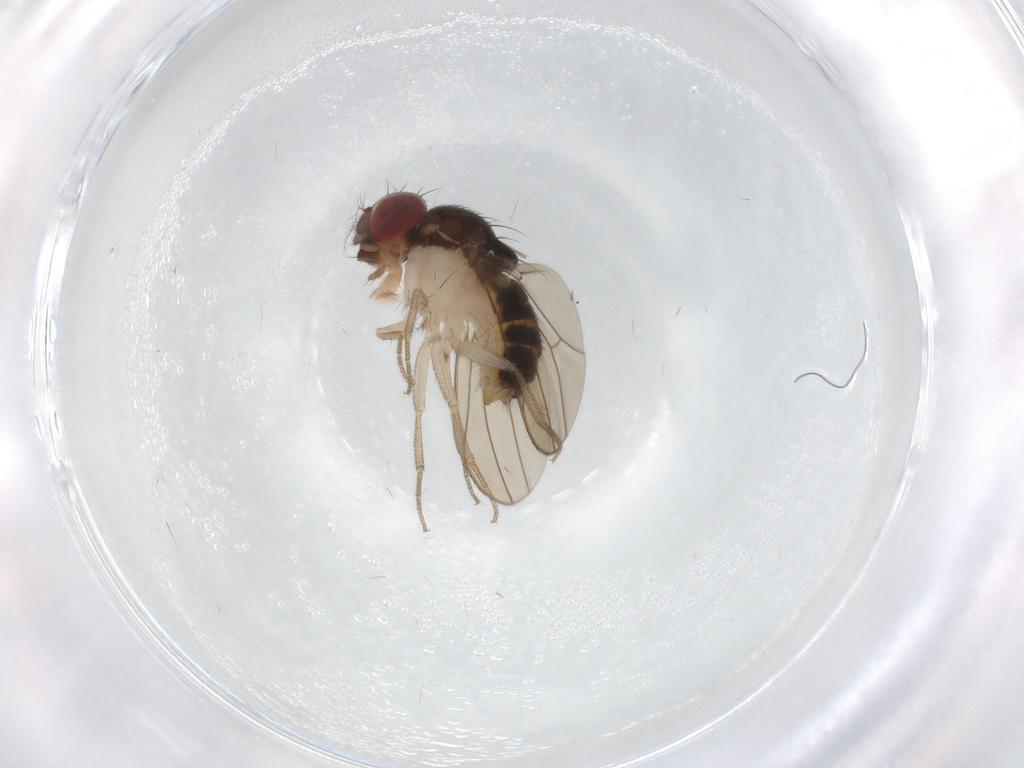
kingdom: Animalia
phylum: Arthropoda
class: Insecta
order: Diptera
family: Drosophilidae
